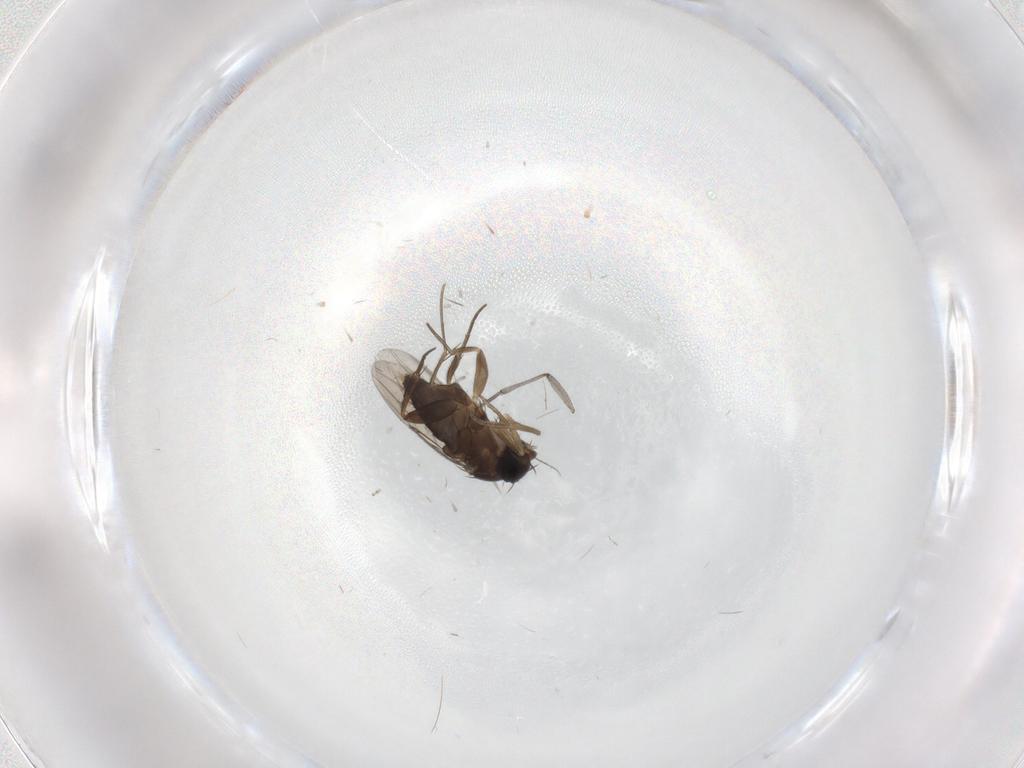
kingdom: Animalia
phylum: Arthropoda
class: Insecta
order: Diptera
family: Phoridae
